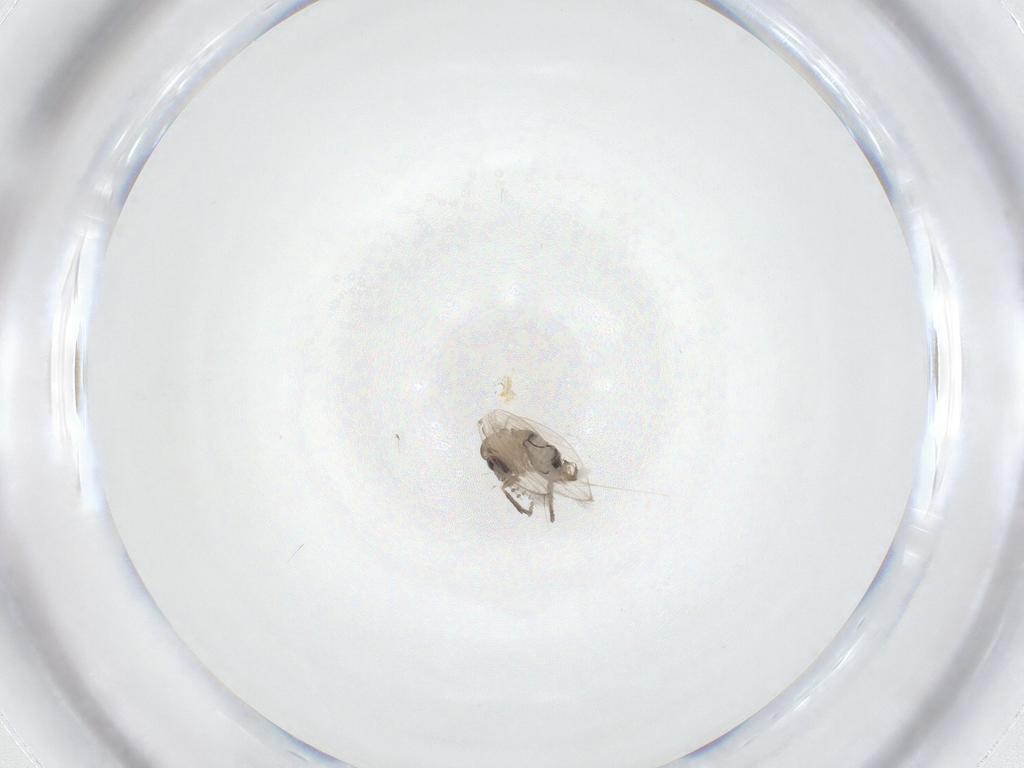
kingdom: Animalia
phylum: Arthropoda
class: Insecta
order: Diptera
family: Psychodidae
